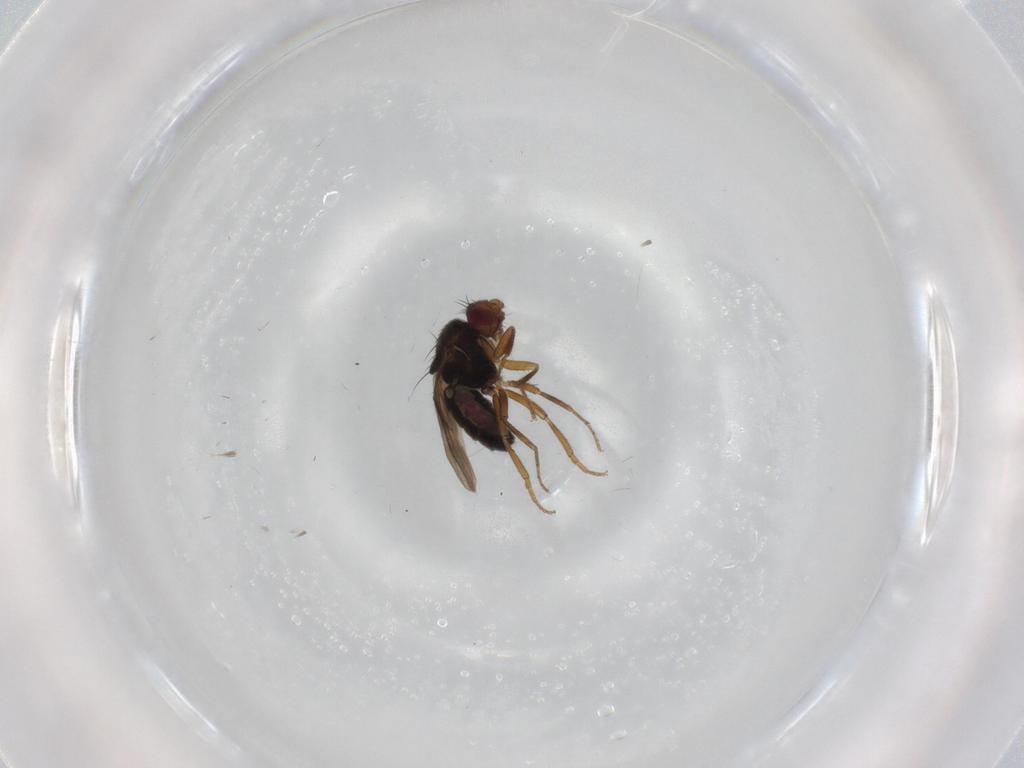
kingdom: Animalia
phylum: Arthropoda
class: Insecta
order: Diptera
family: Sphaeroceridae
